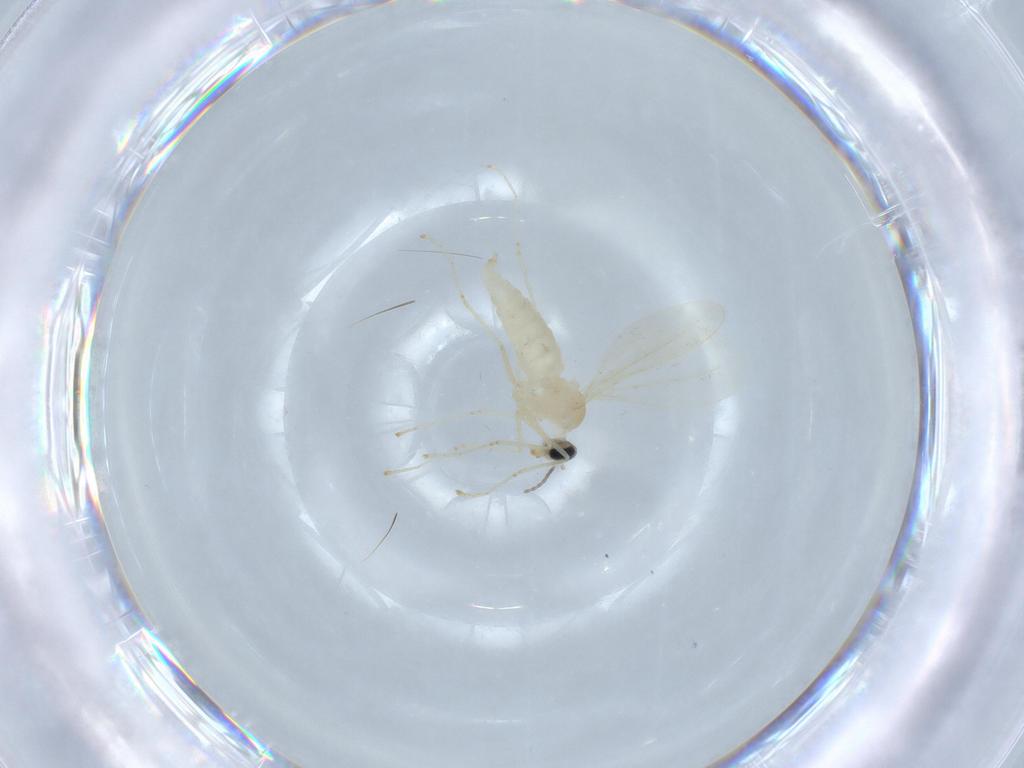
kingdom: Animalia
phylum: Arthropoda
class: Insecta
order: Diptera
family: Cecidomyiidae
